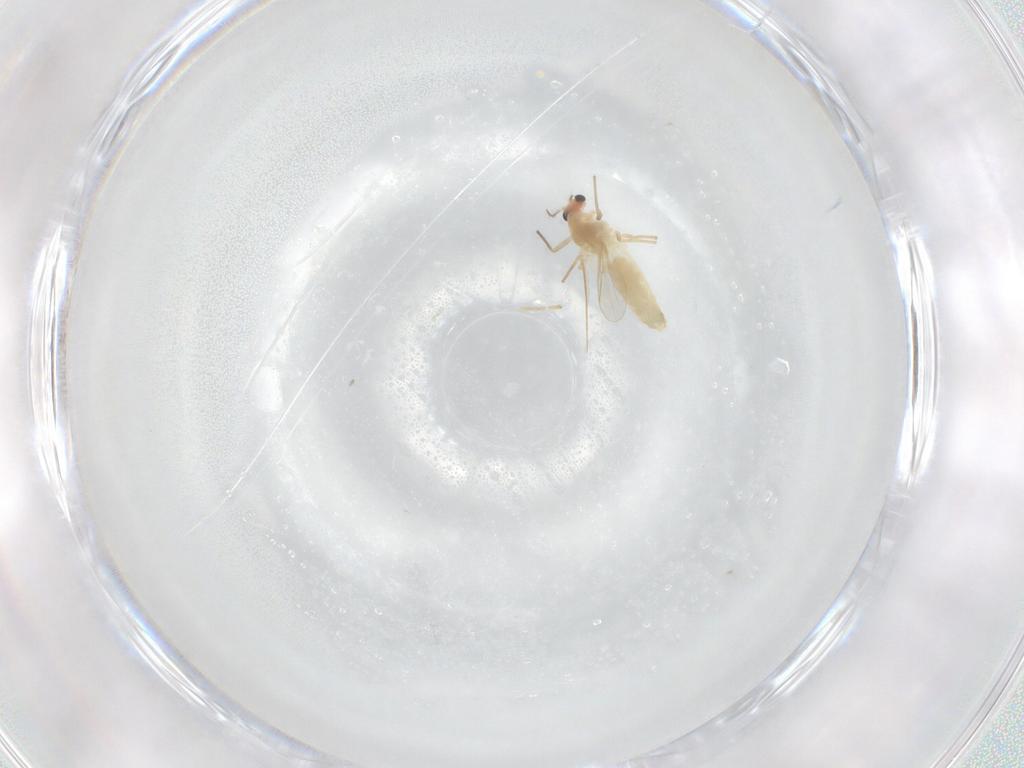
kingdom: Animalia
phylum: Arthropoda
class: Insecta
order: Diptera
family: Chironomidae
